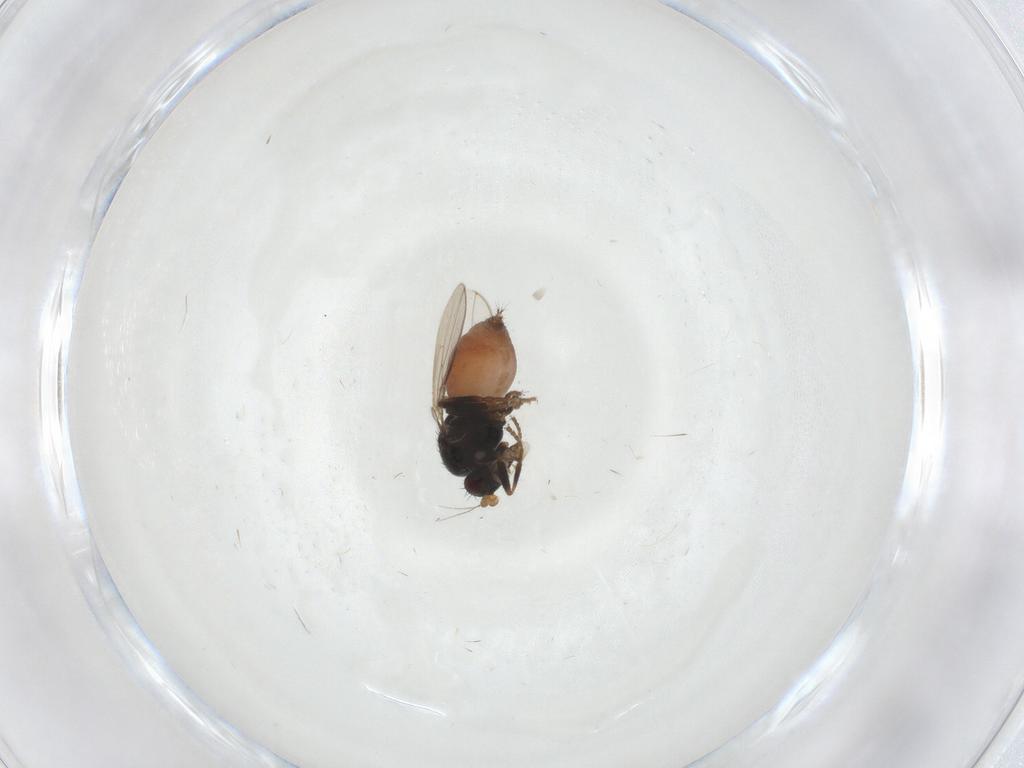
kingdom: Animalia
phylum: Arthropoda
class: Insecta
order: Diptera
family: Sphaeroceridae
